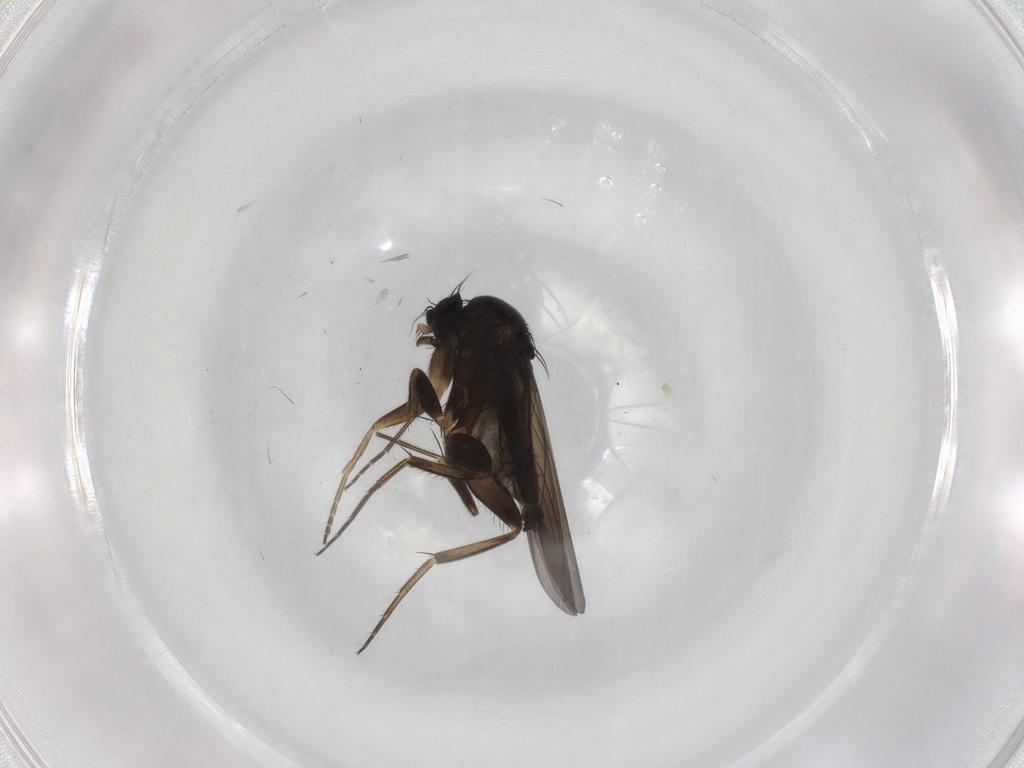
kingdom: Animalia
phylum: Arthropoda
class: Insecta
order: Diptera
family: Phoridae
